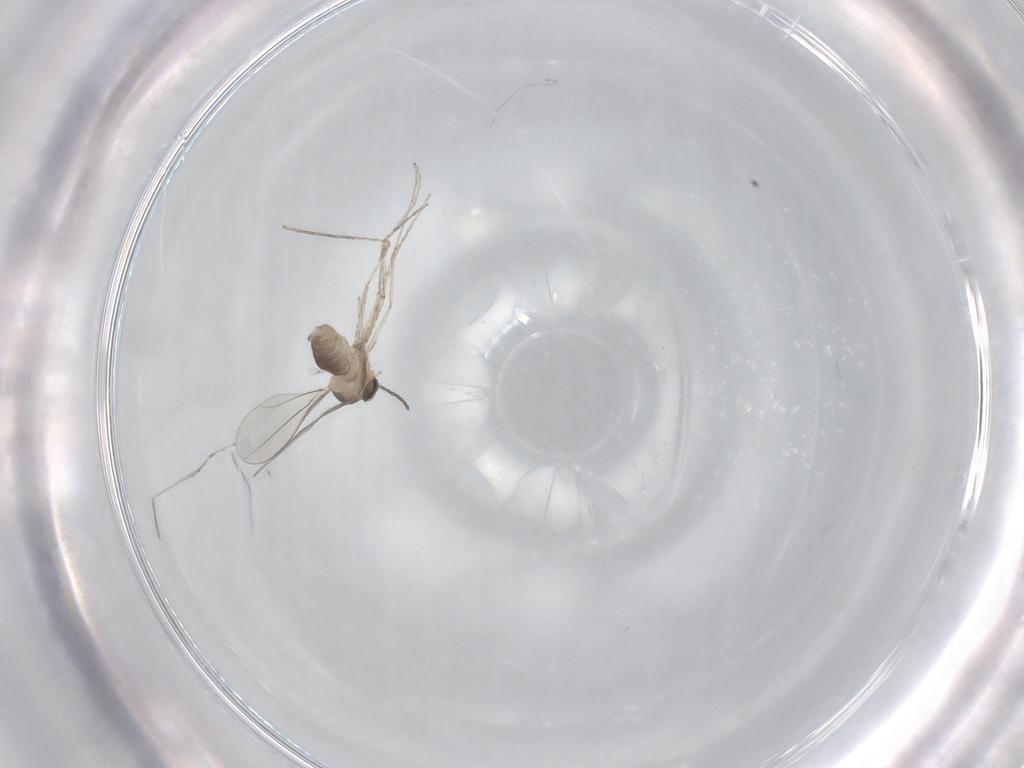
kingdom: Animalia
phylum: Arthropoda
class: Insecta
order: Diptera
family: Cecidomyiidae
